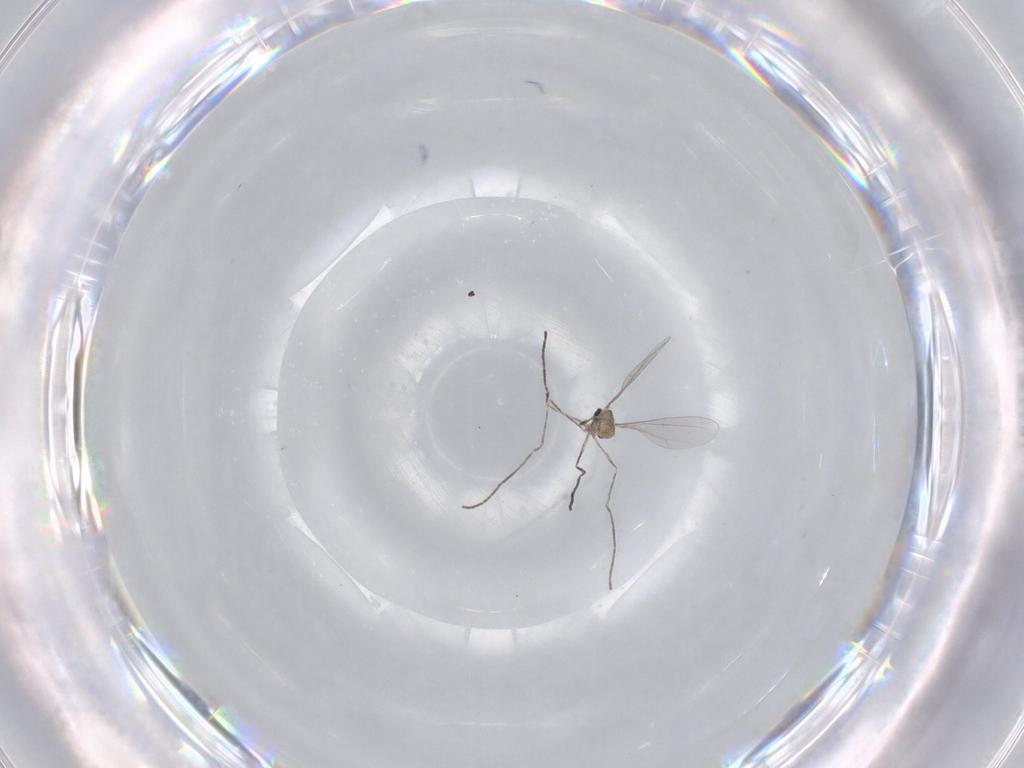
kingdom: Animalia
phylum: Arthropoda
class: Insecta
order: Diptera
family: Cecidomyiidae
